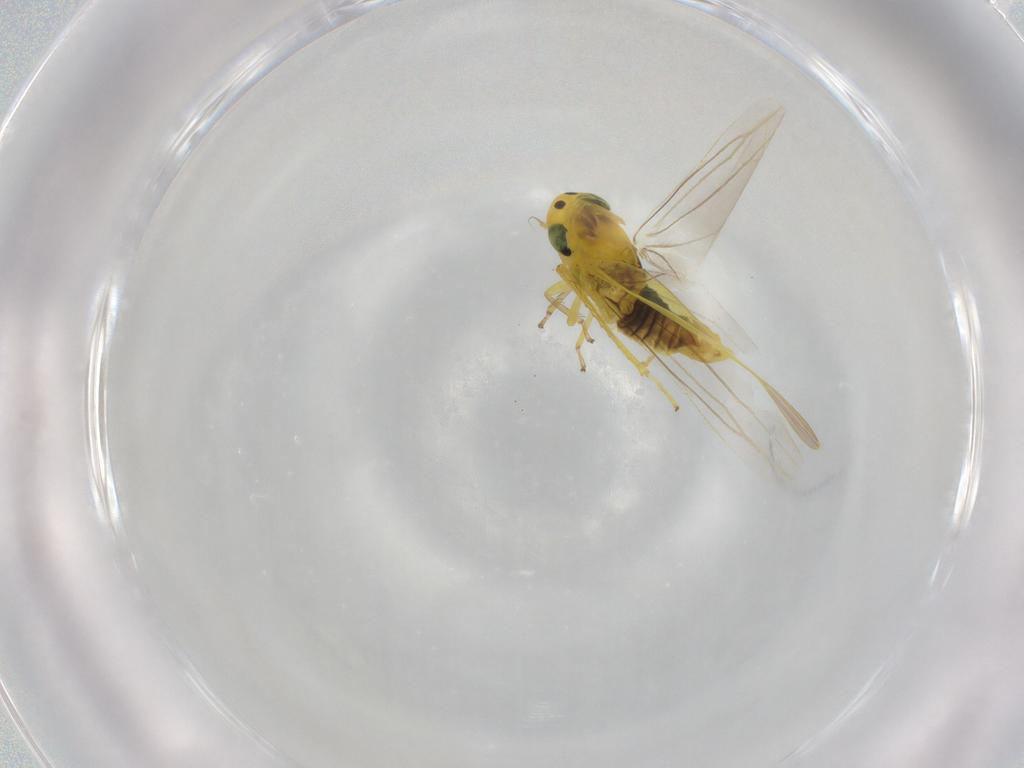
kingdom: Animalia
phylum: Arthropoda
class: Insecta
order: Hemiptera
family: Cicadellidae
